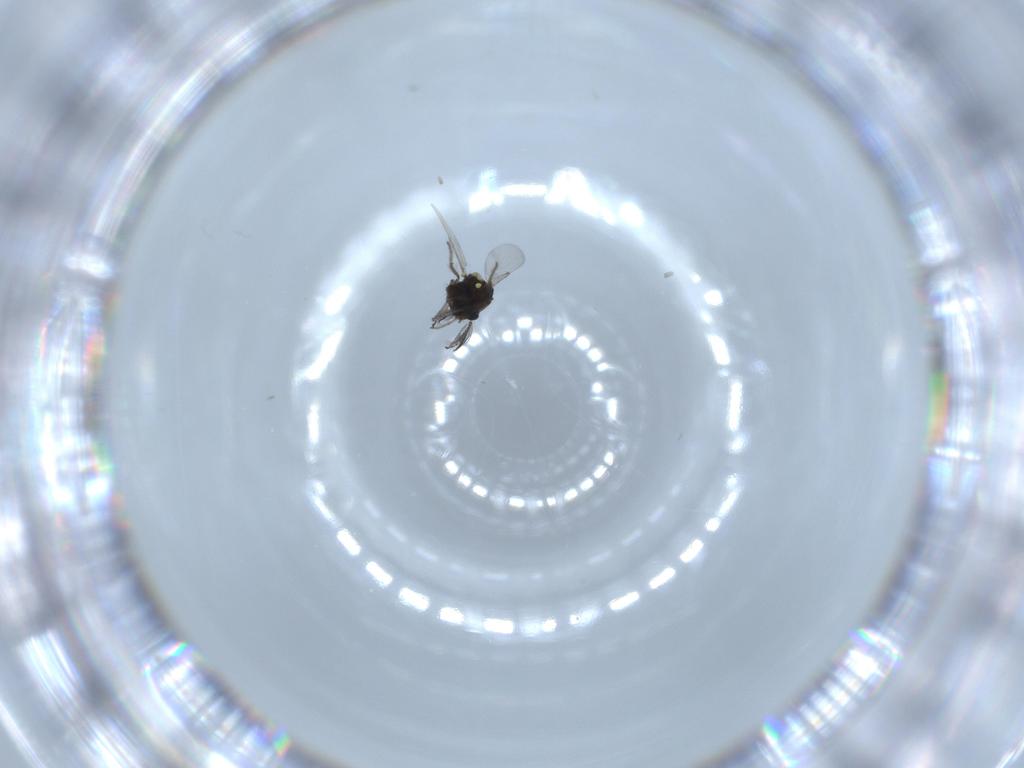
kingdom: Animalia
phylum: Arthropoda
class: Insecta
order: Diptera
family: Ceratopogonidae
